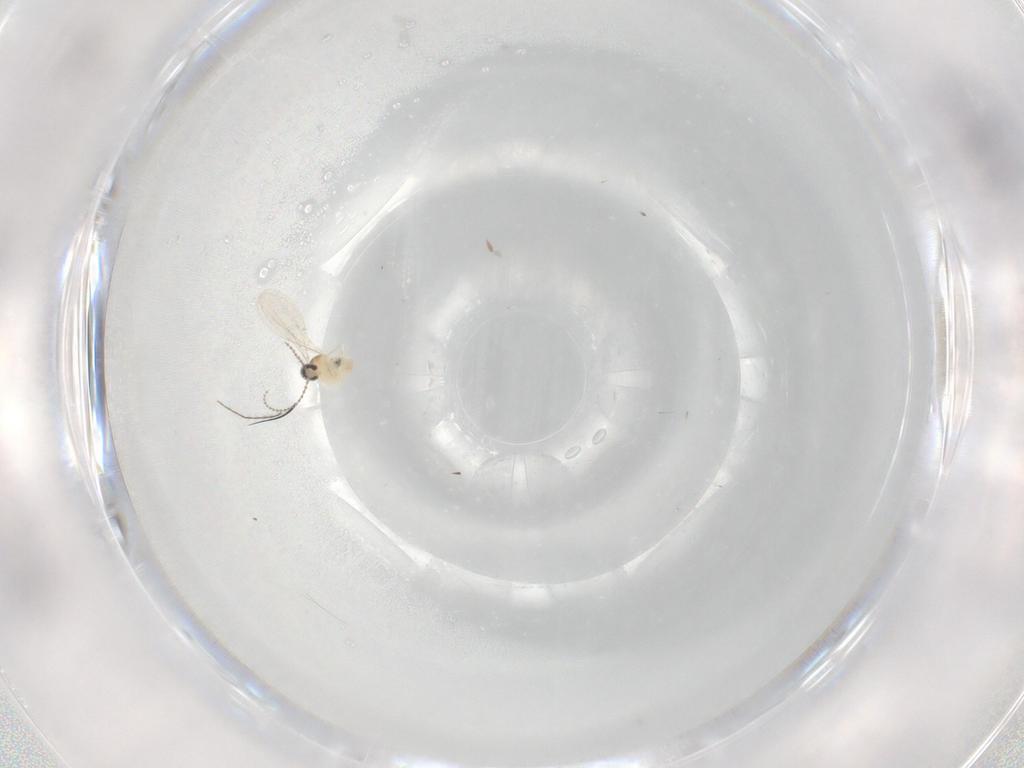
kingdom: Animalia
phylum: Arthropoda
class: Insecta
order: Diptera
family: Cecidomyiidae
